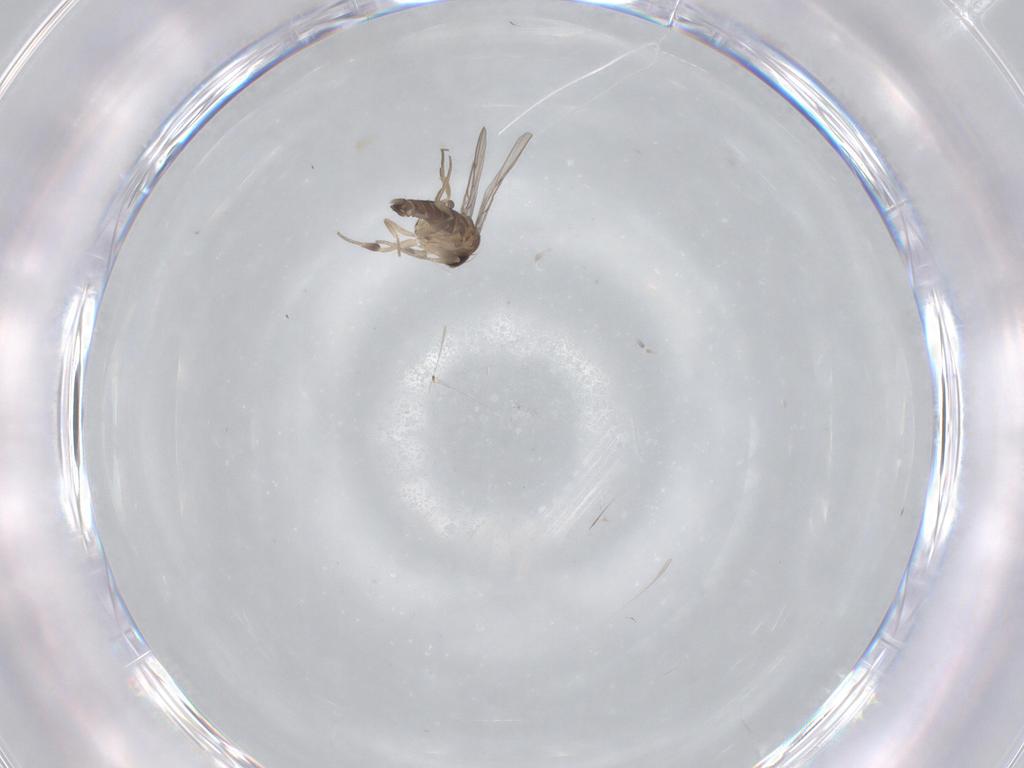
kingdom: Animalia
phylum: Arthropoda
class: Insecta
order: Diptera
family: Phoridae
